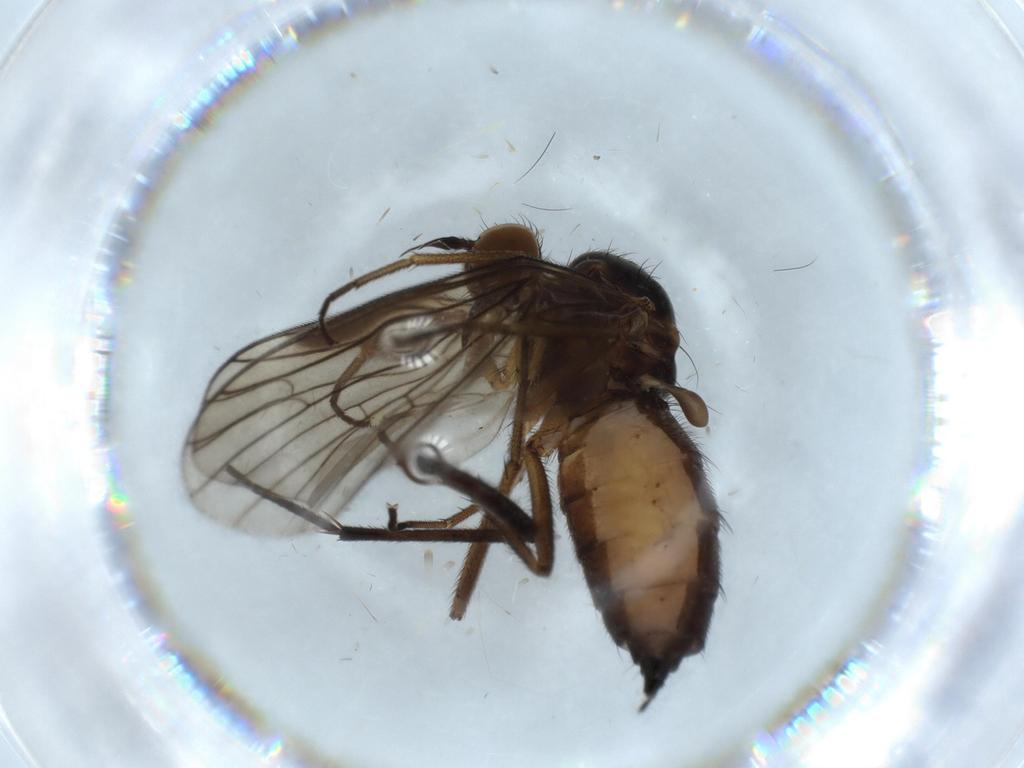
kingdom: Animalia
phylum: Arthropoda
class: Insecta
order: Diptera
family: Empididae
